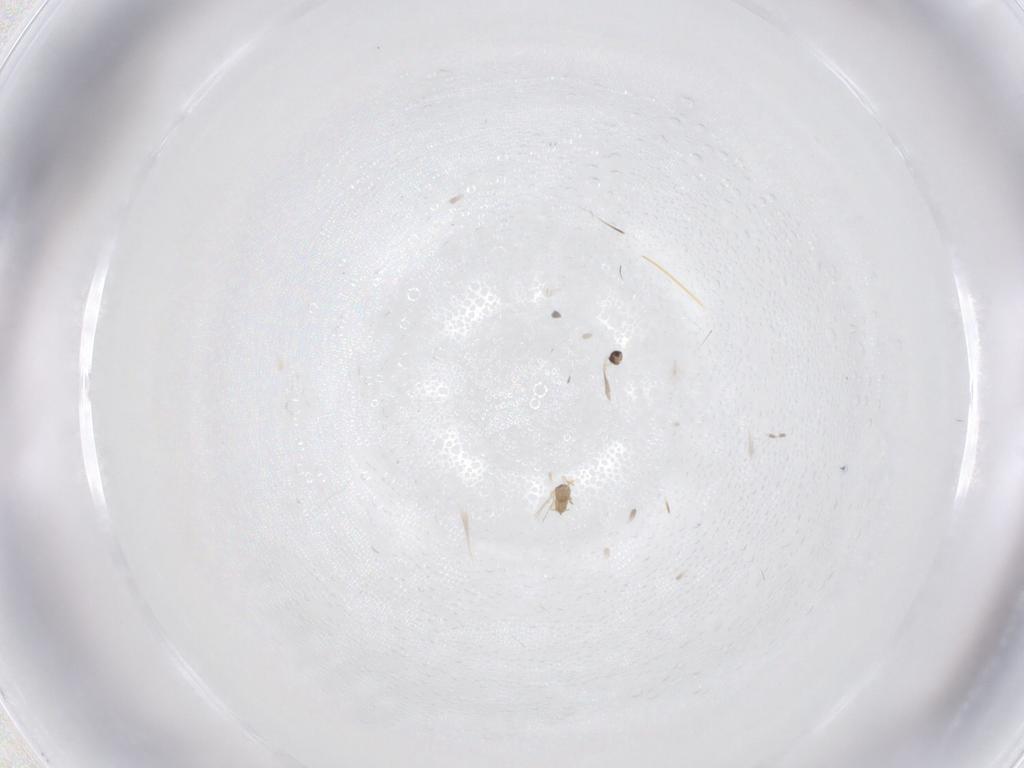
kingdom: Animalia
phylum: Arthropoda
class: Insecta
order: Hymenoptera
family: Mymaridae
